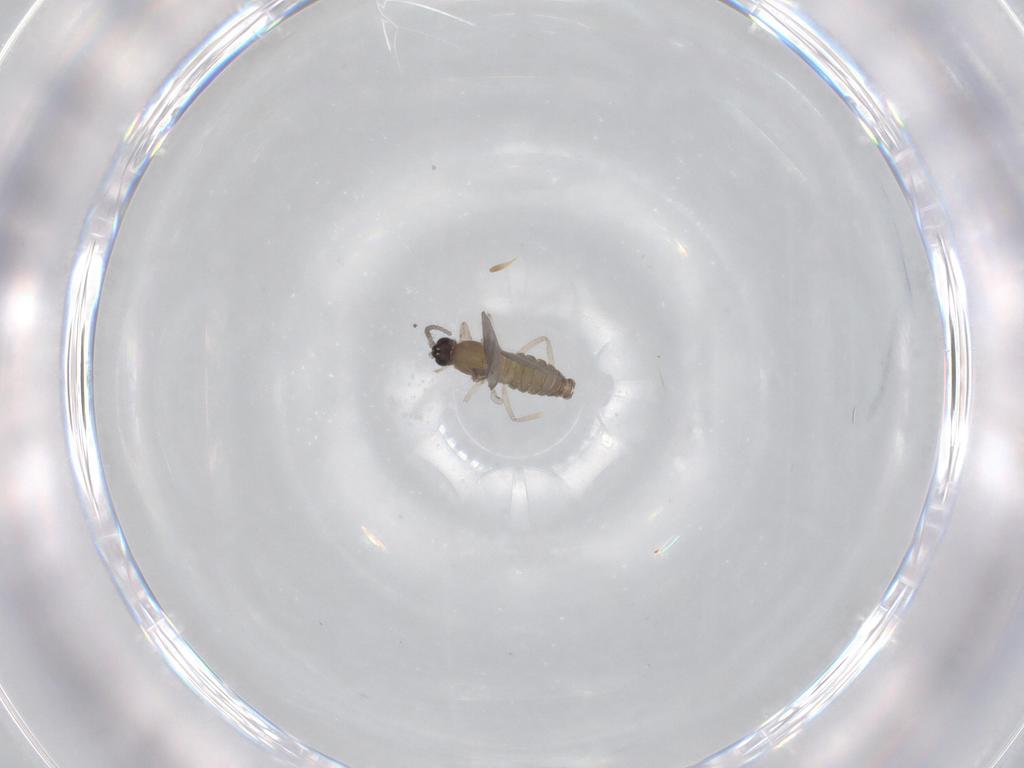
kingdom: Animalia
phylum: Arthropoda
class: Insecta
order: Diptera
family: Cecidomyiidae
